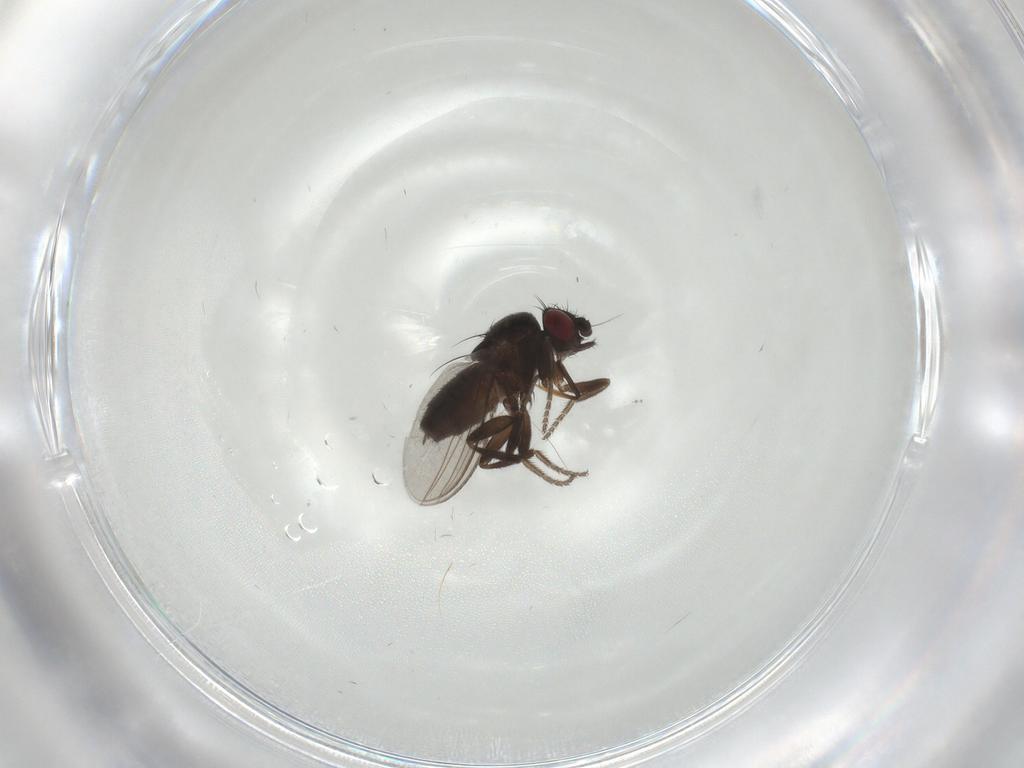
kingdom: Animalia
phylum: Arthropoda
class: Insecta
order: Diptera
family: Milichiidae
